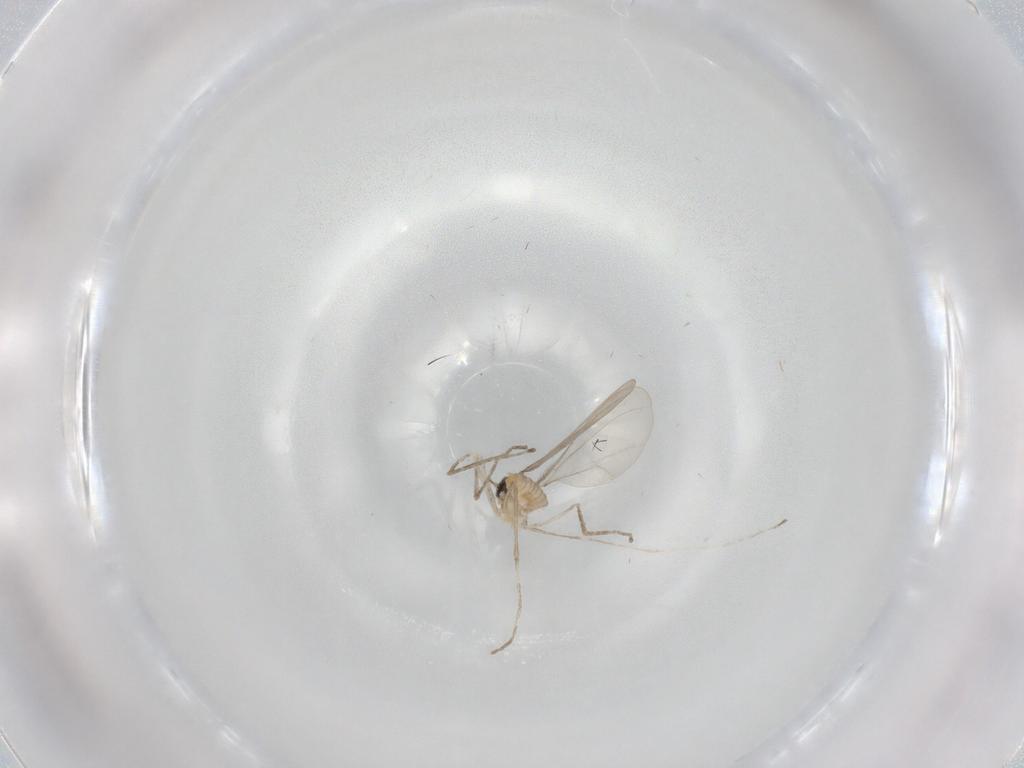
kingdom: Animalia
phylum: Arthropoda
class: Insecta
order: Diptera
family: Cecidomyiidae
